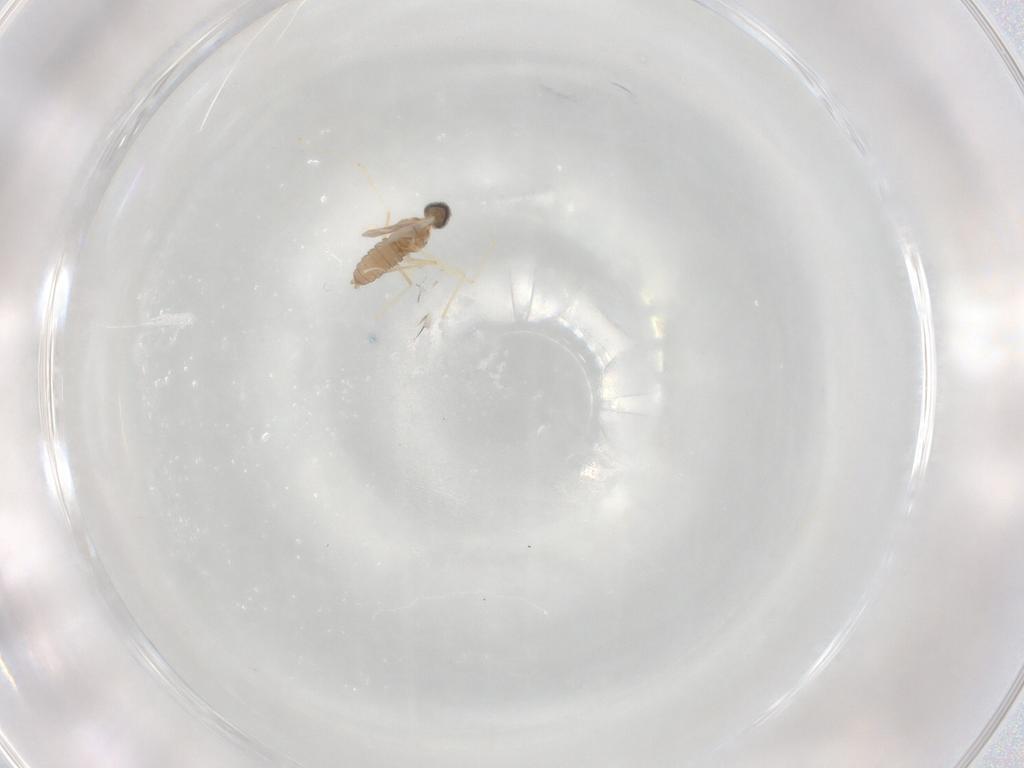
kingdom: Animalia
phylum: Arthropoda
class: Insecta
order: Diptera
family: Cecidomyiidae
